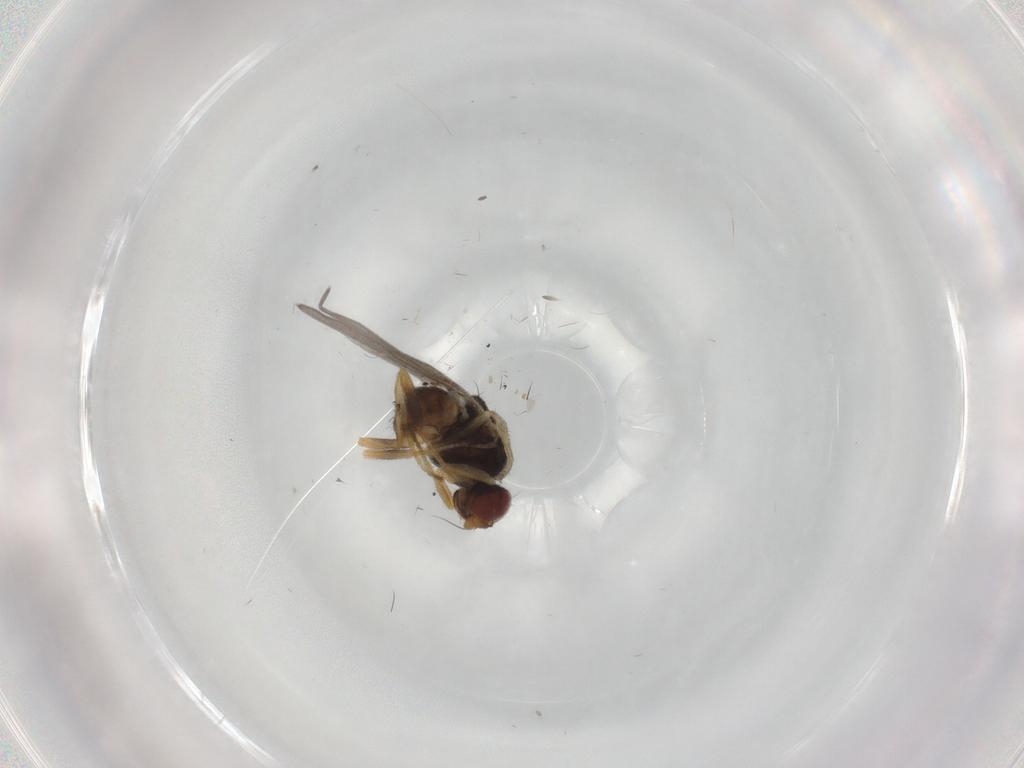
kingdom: Animalia
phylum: Arthropoda
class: Insecta
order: Diptera
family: Chloropidae
